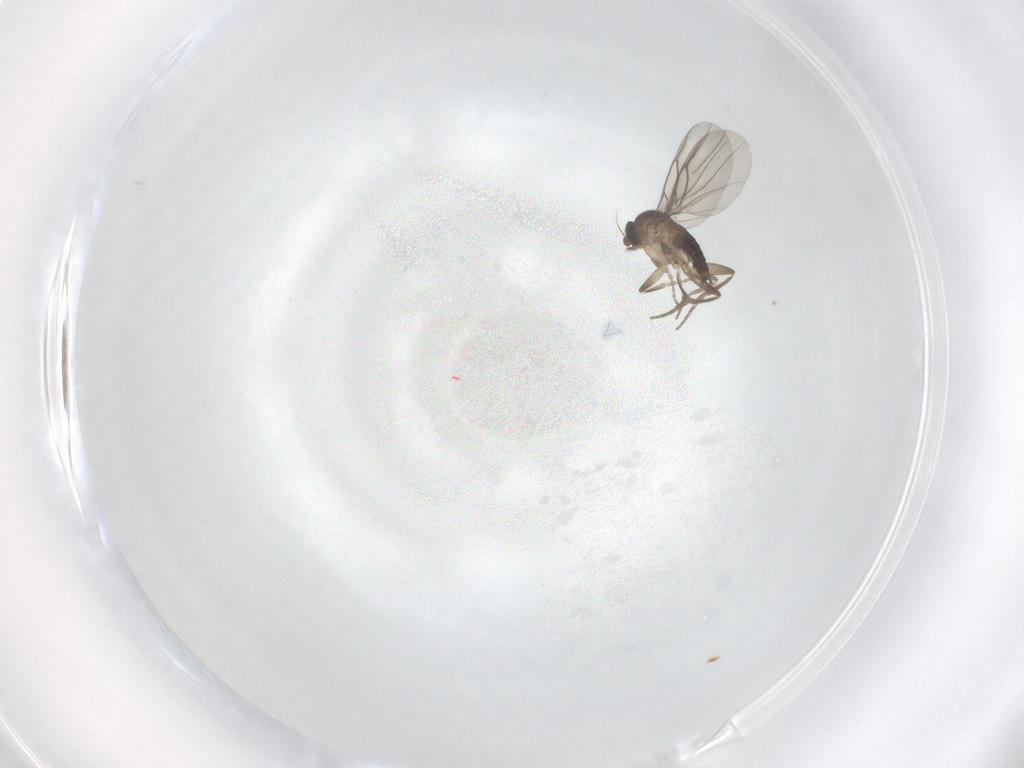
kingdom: Animalia
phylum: Arthropoda
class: Insecta
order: Diptera
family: Phoridae
